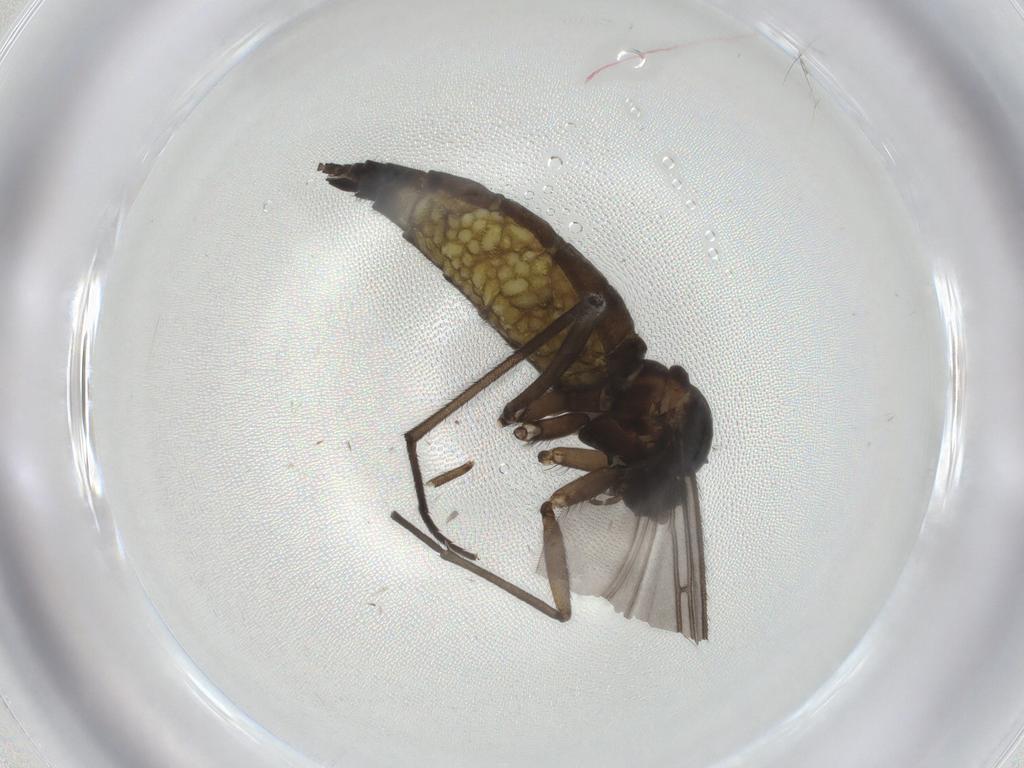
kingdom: Animalia
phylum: Arthropoda
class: Insecta
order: Diptera
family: Sciaridae
